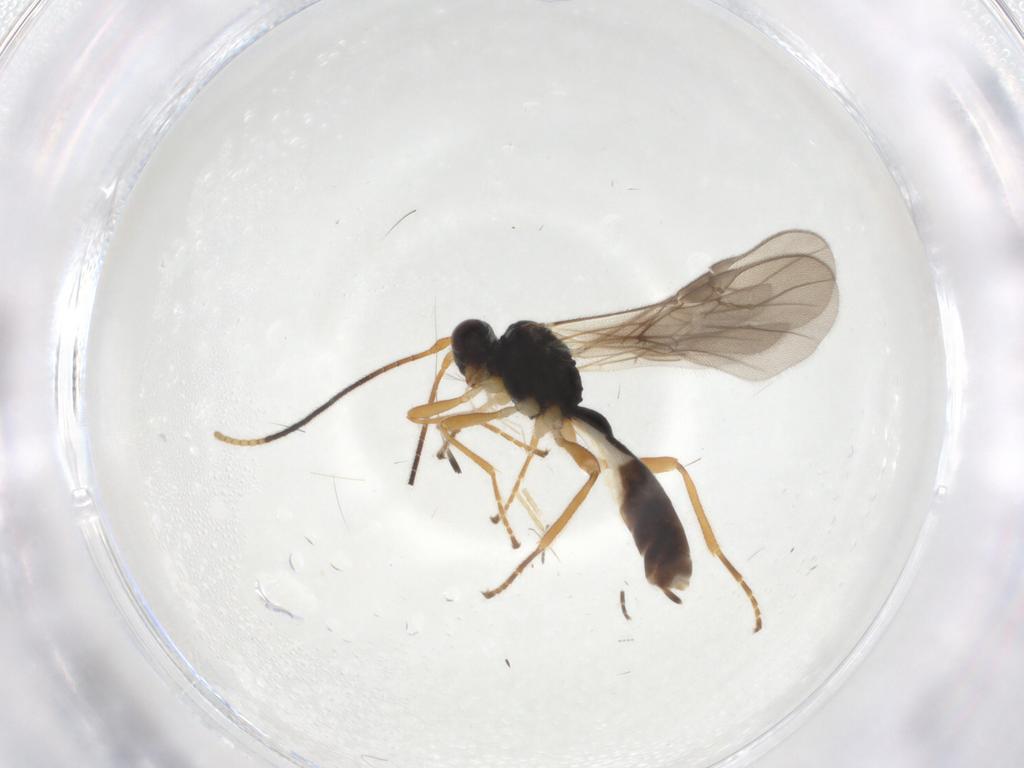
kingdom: Animalia
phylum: Arthropoda
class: Insecta
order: Hymenoptera
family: Braconidae
